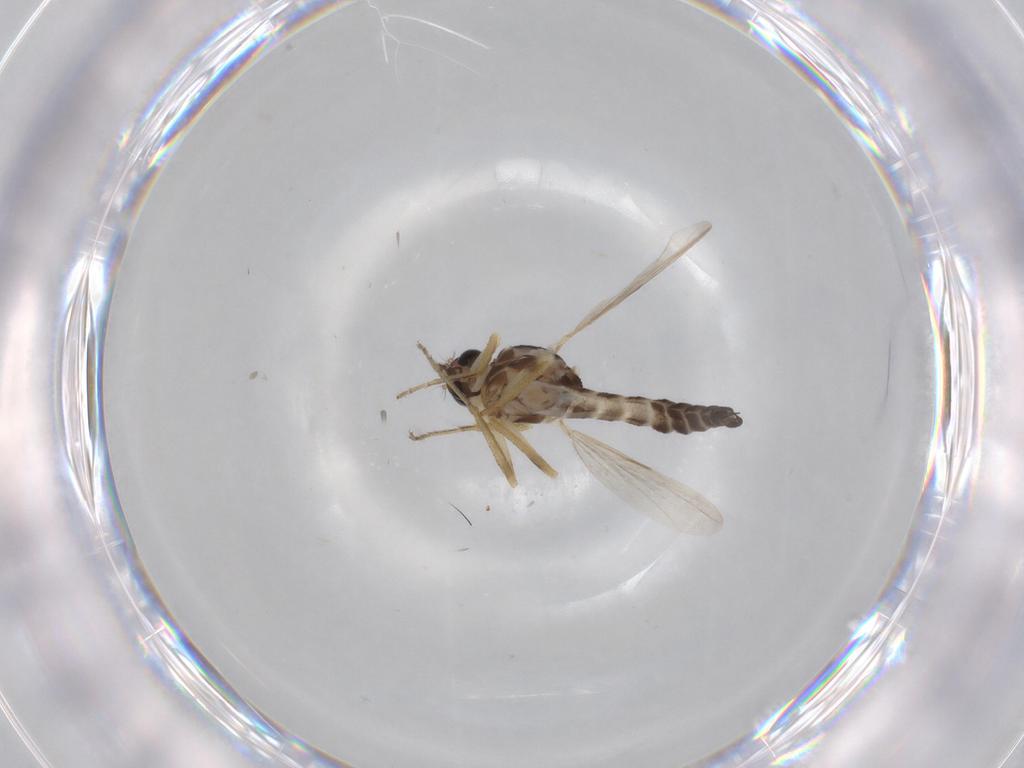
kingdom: Animalia
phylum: Arthropoda
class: Insecta
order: Diptera
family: Ceratopogonidae
